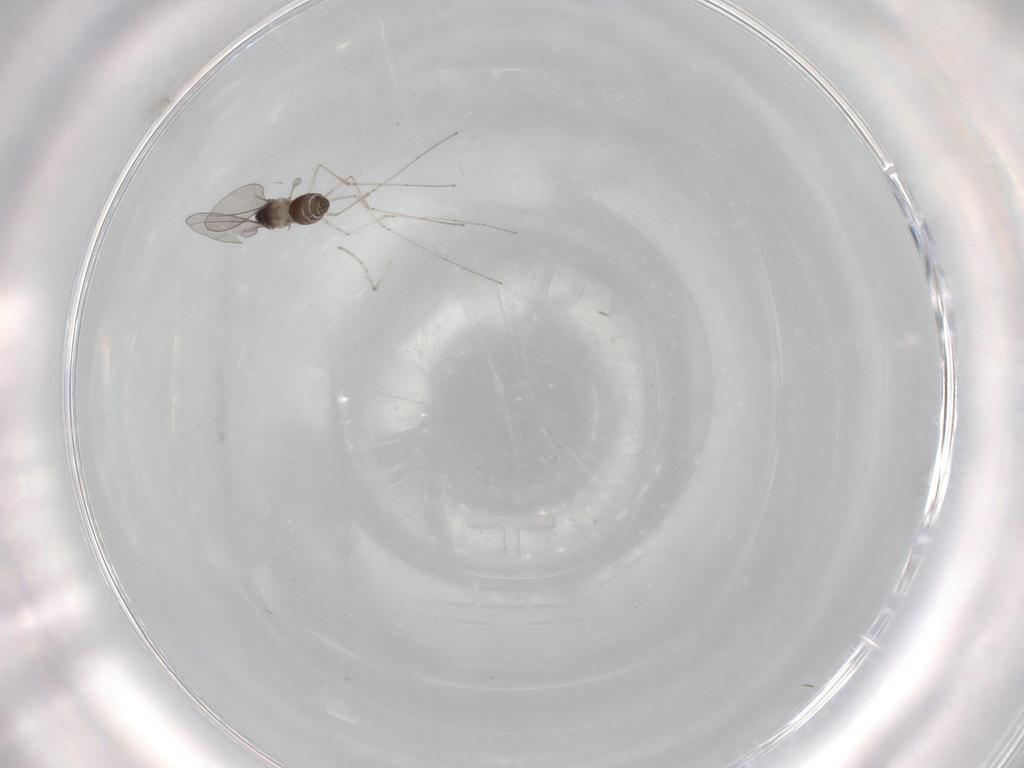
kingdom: Animalia
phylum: Arthropoda
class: Insecta
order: Diptera
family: Cecidomyiidae
